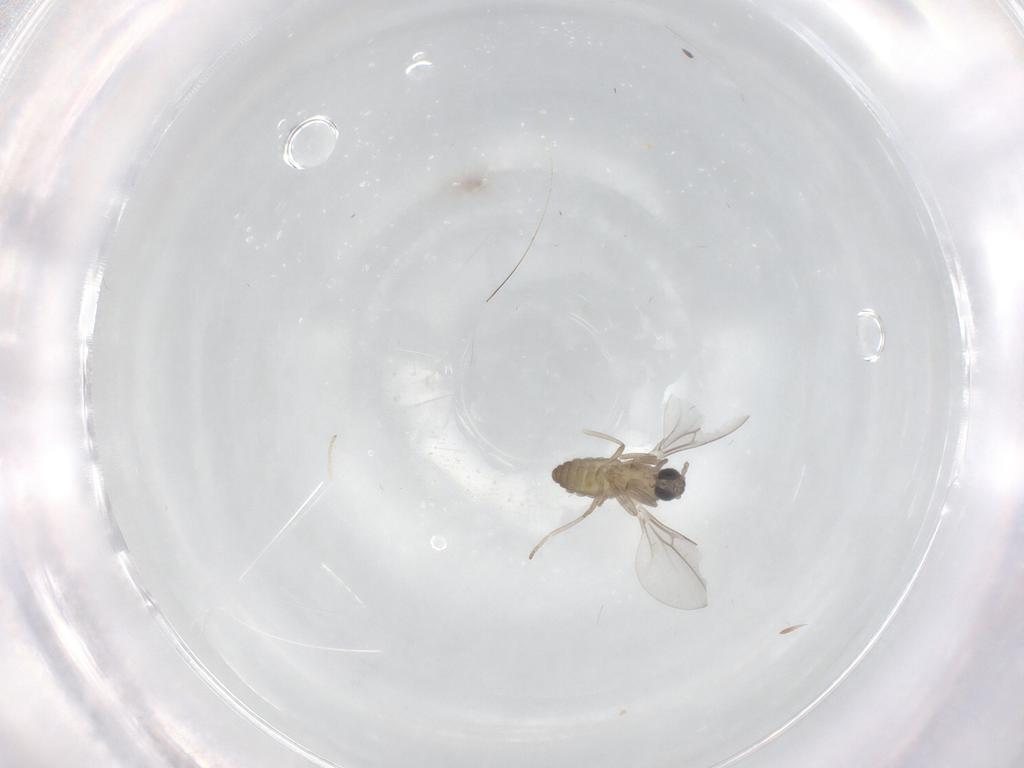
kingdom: Animalia
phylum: Arthropoda
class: Insecta
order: Diptera
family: Cecidomyiidae
